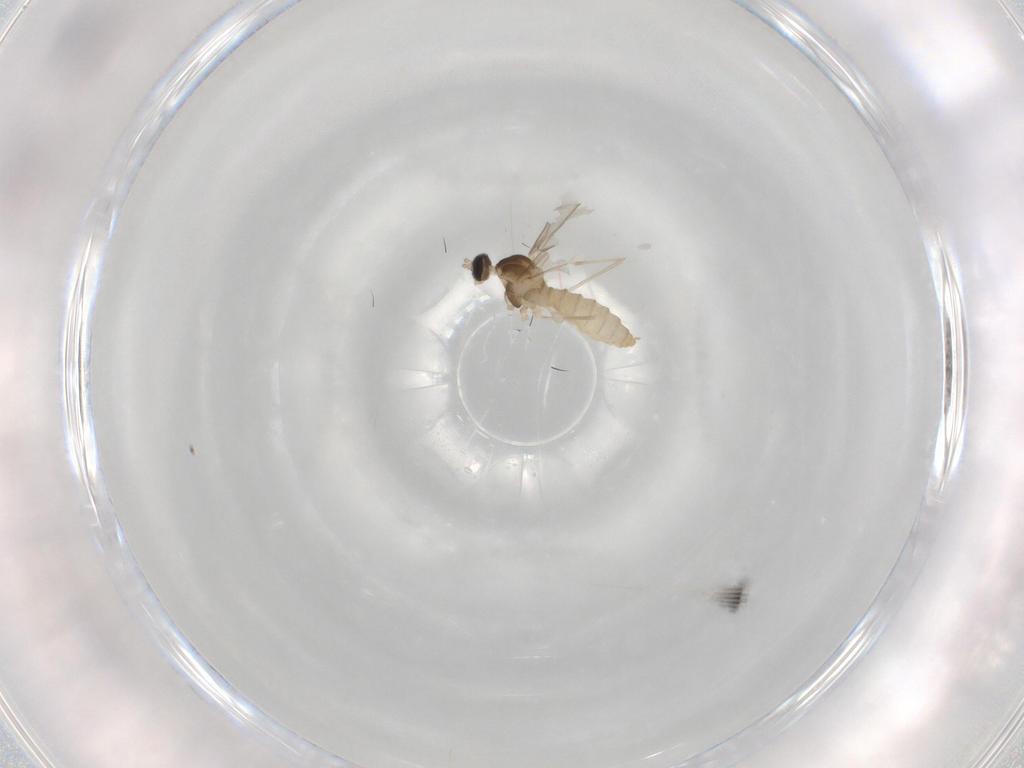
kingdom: Animalia
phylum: Arthropoda
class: Insecta
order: Diptera
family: Cecidomyiidae
